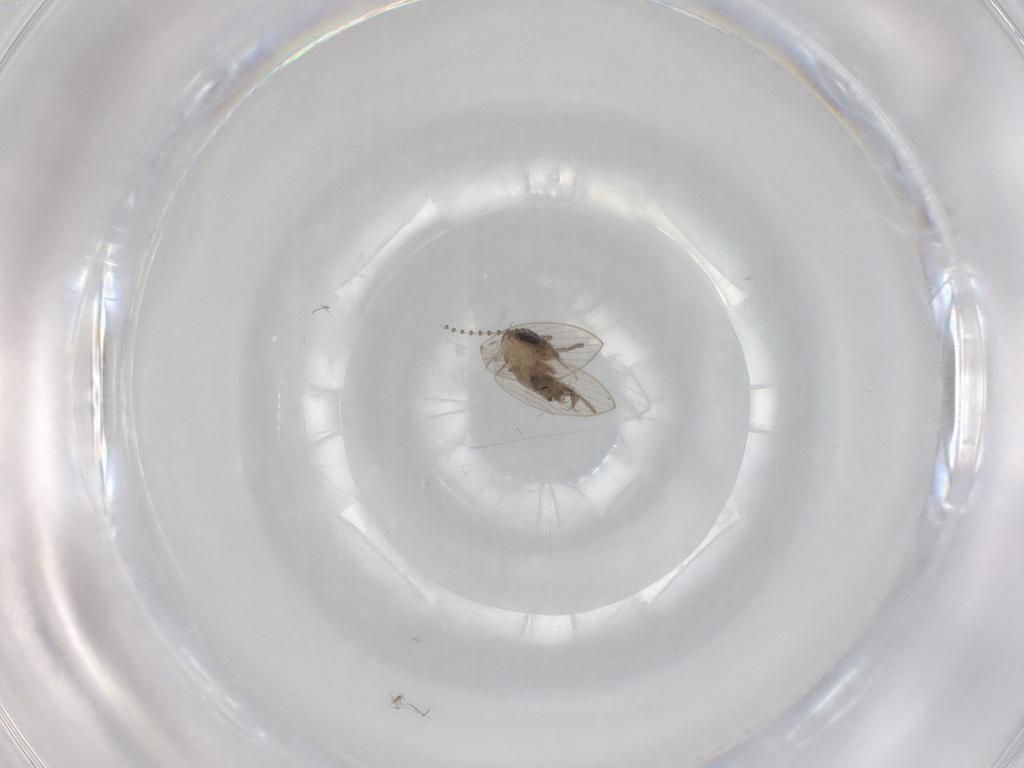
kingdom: Animalia
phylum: Arthropoda
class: Insecta
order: Diptera
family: Psychodidae
